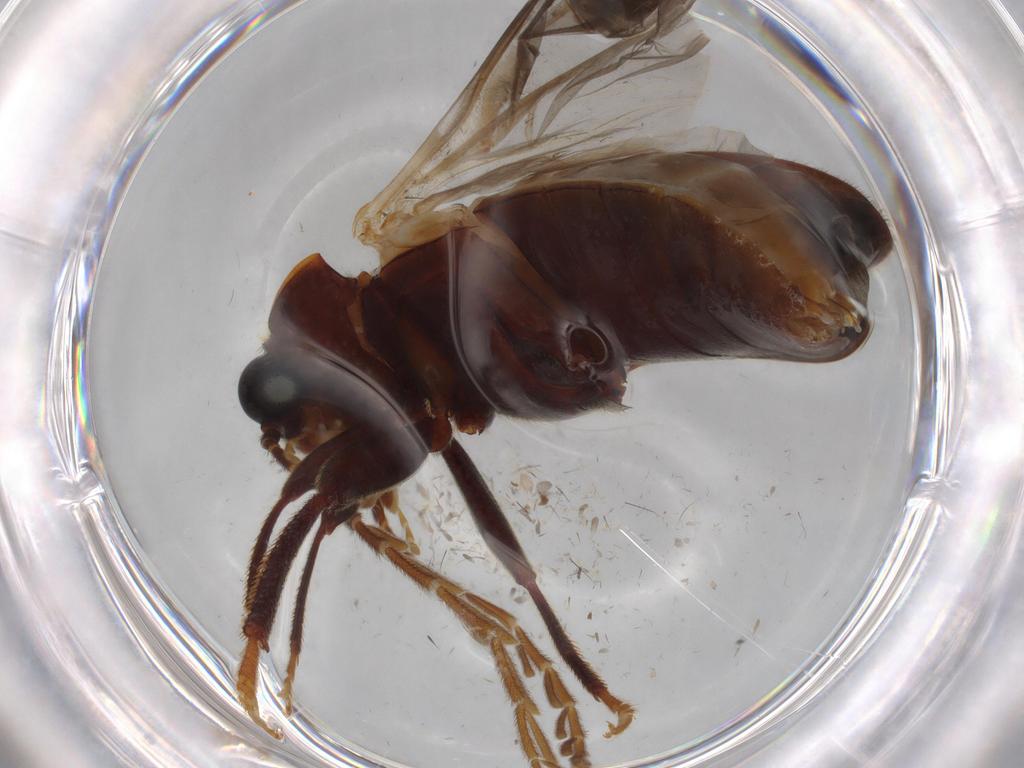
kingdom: Animalia
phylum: Arthropoda
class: Insecta
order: Coleoptera
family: Ptilodactylidae
